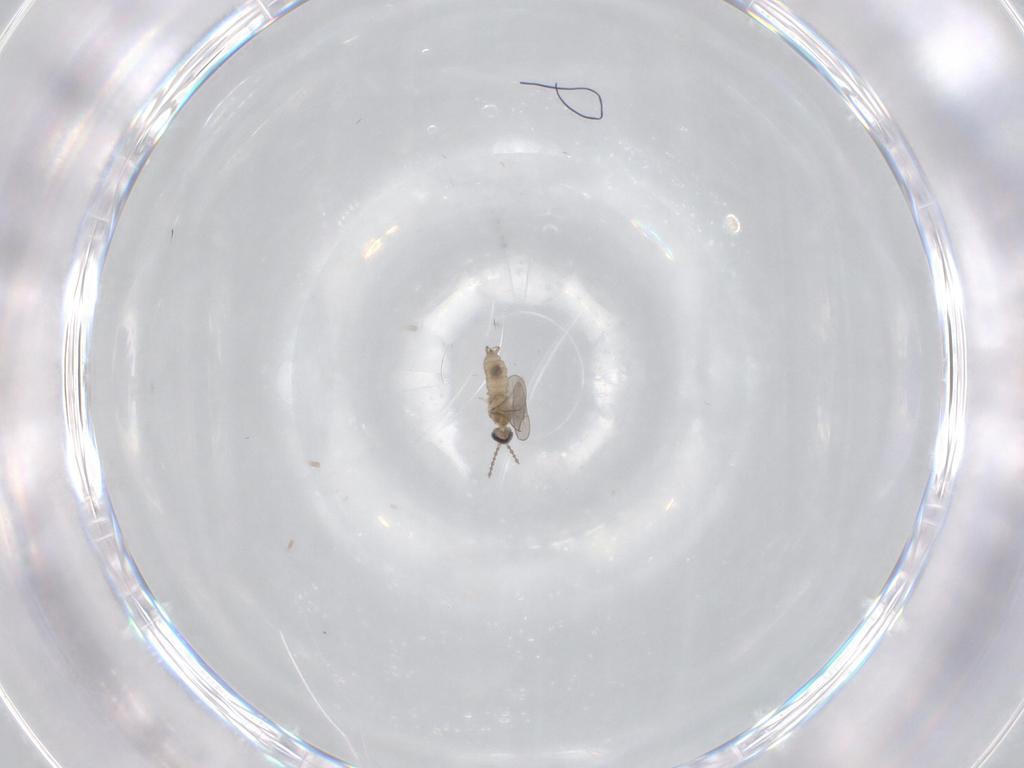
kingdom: Animalia
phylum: Arthropoda
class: Insecta
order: Diptera
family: Cecidomyiidae
